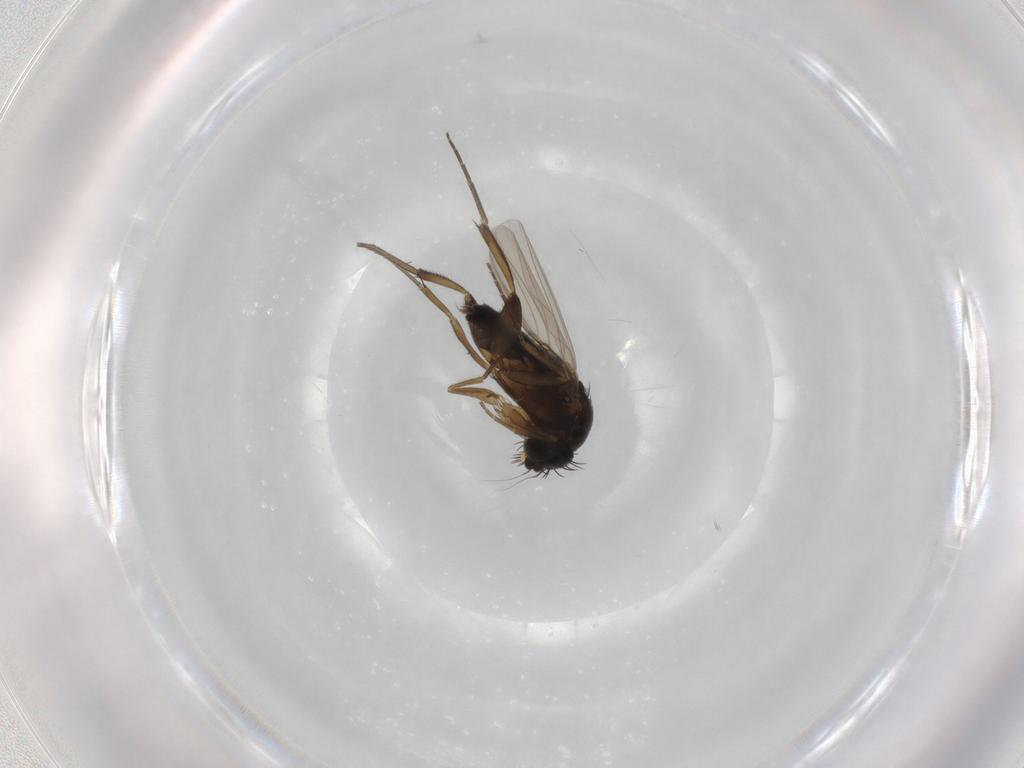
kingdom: Animalia
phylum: Arthropoda
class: Insecta
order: Diptera
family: Phoridae
